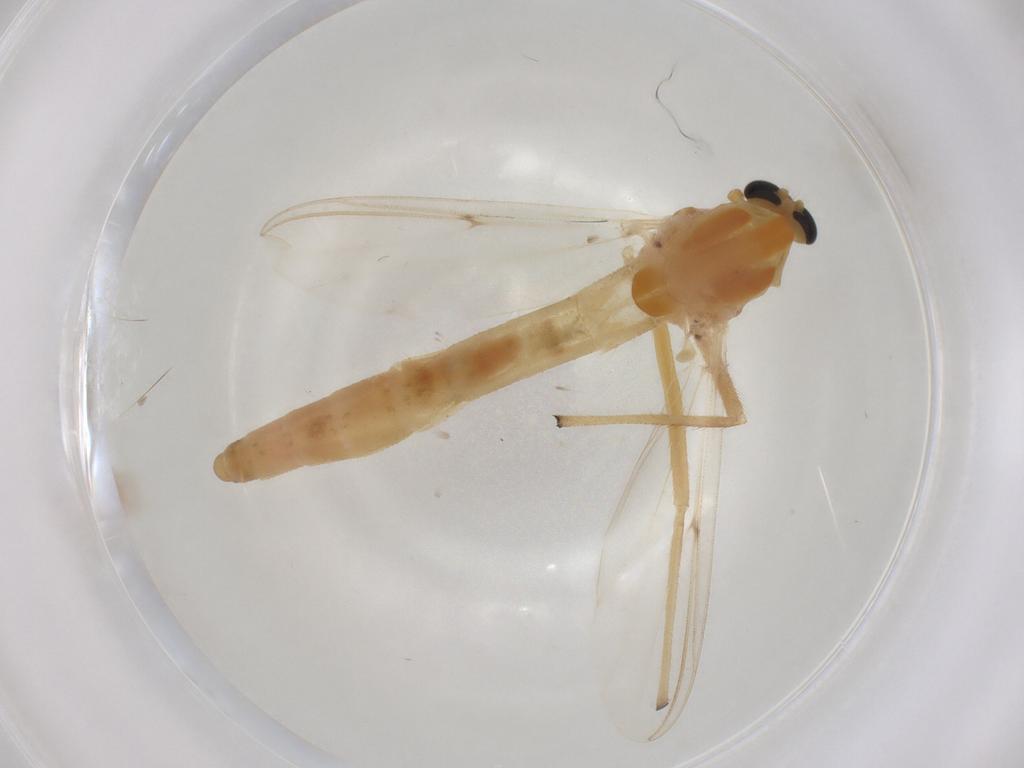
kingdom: Animalia
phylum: Arthropoda
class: Insecta
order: Diptera
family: Chironomidae
